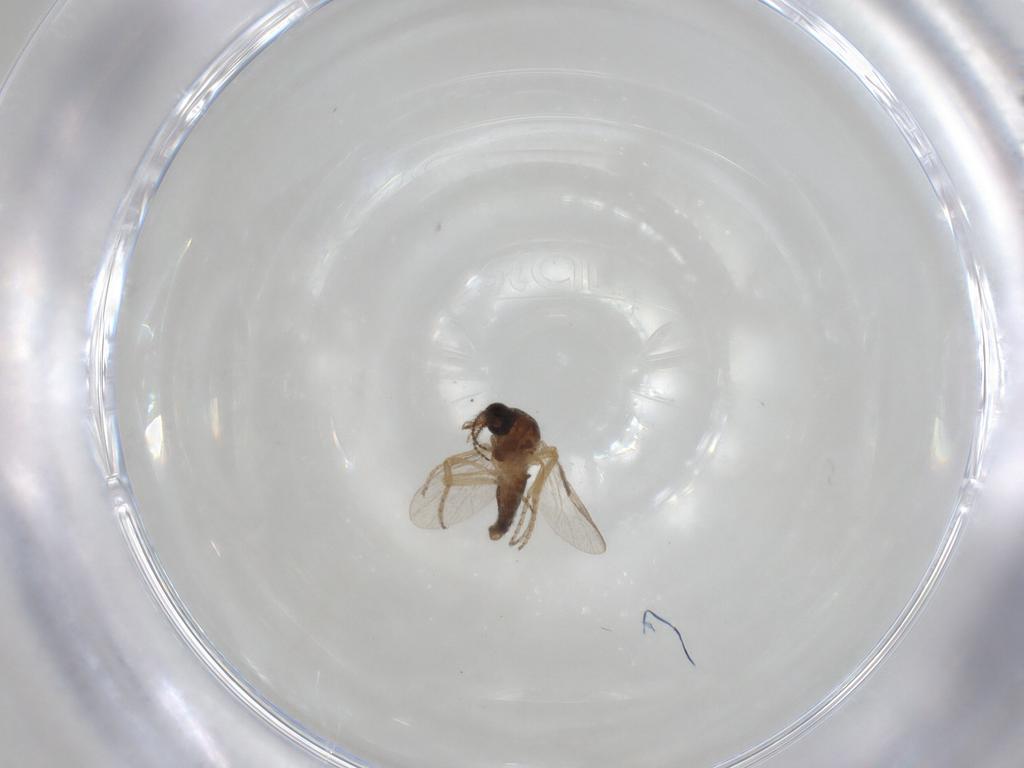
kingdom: Animalia
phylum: Arthropoda
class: Insecta
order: Diptera
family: Ceratopogonidae
